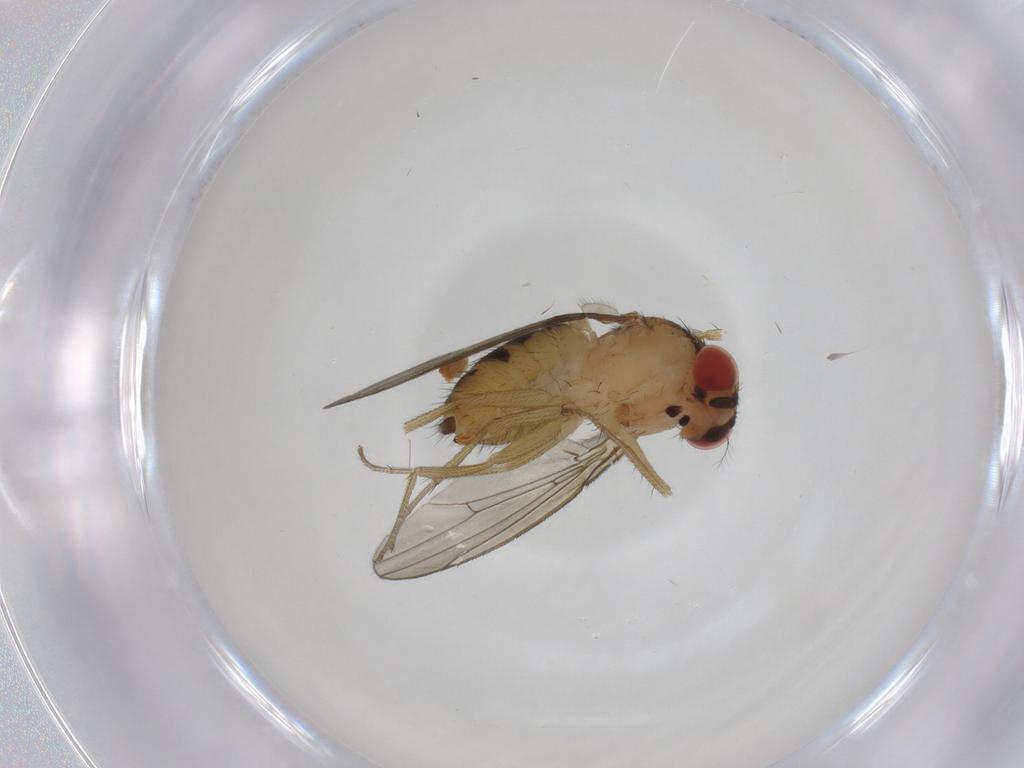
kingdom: Animalia
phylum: Arthropoda
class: Insecta
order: Diptera
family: Drosophilidae
